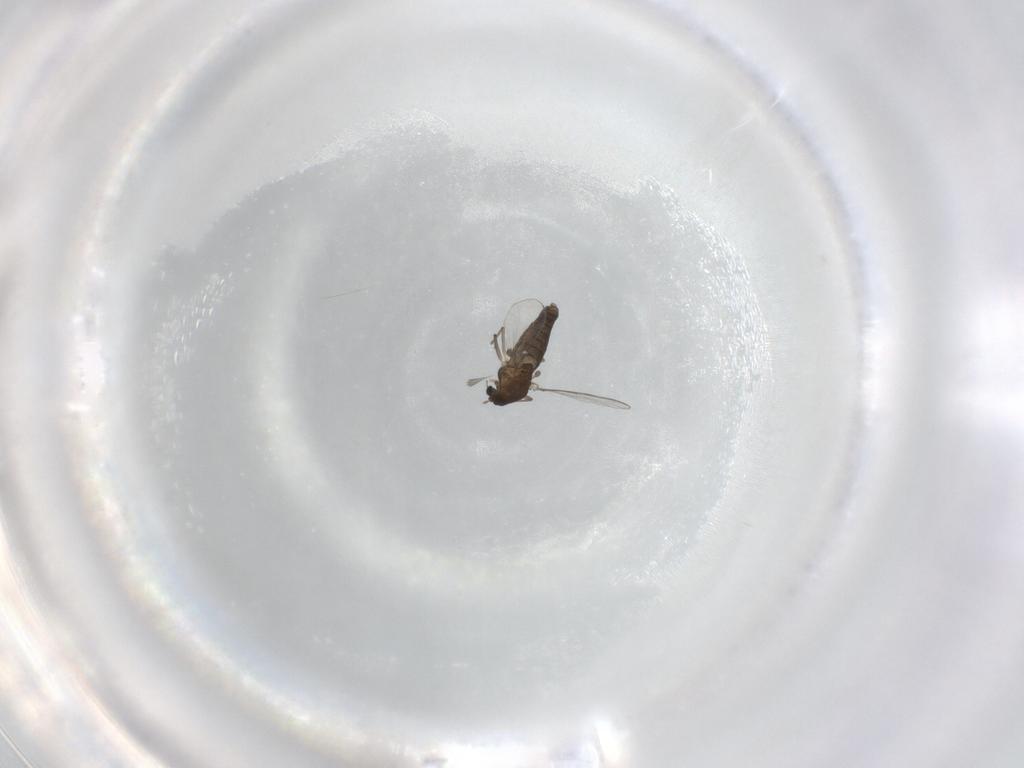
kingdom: Animalia
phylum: Arthropoda
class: Insecta
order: Diptera
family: Chironomidae
